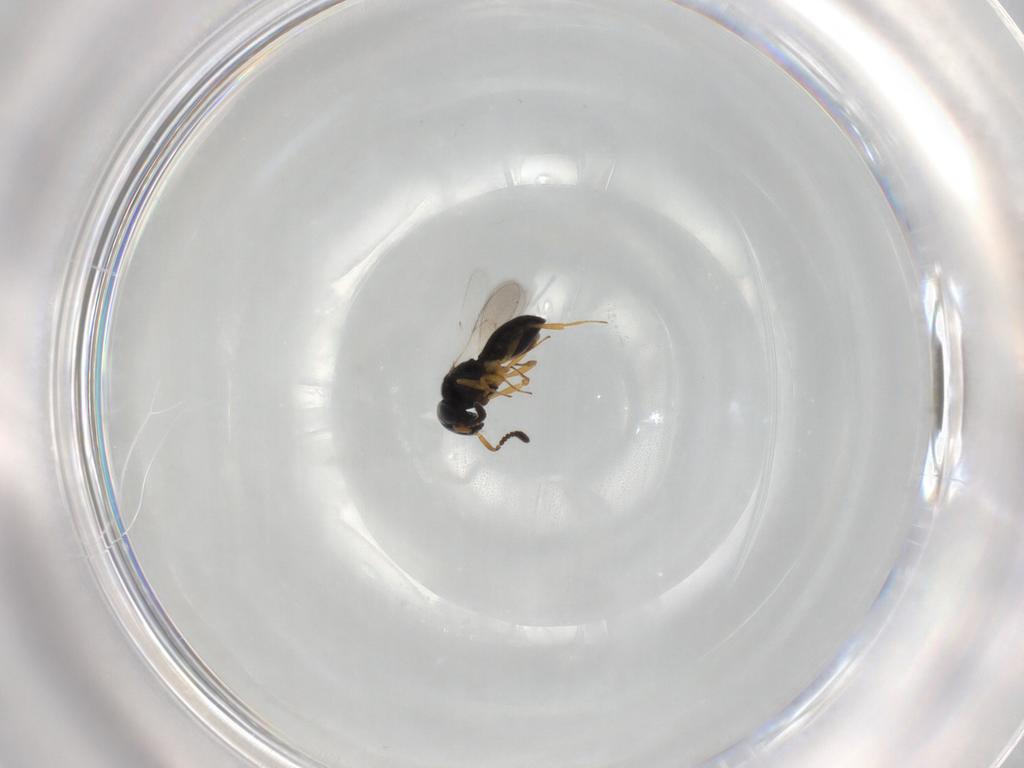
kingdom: Animalia
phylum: Arthropoda
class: Insecta
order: Hymenoptera
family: Scelionidae
